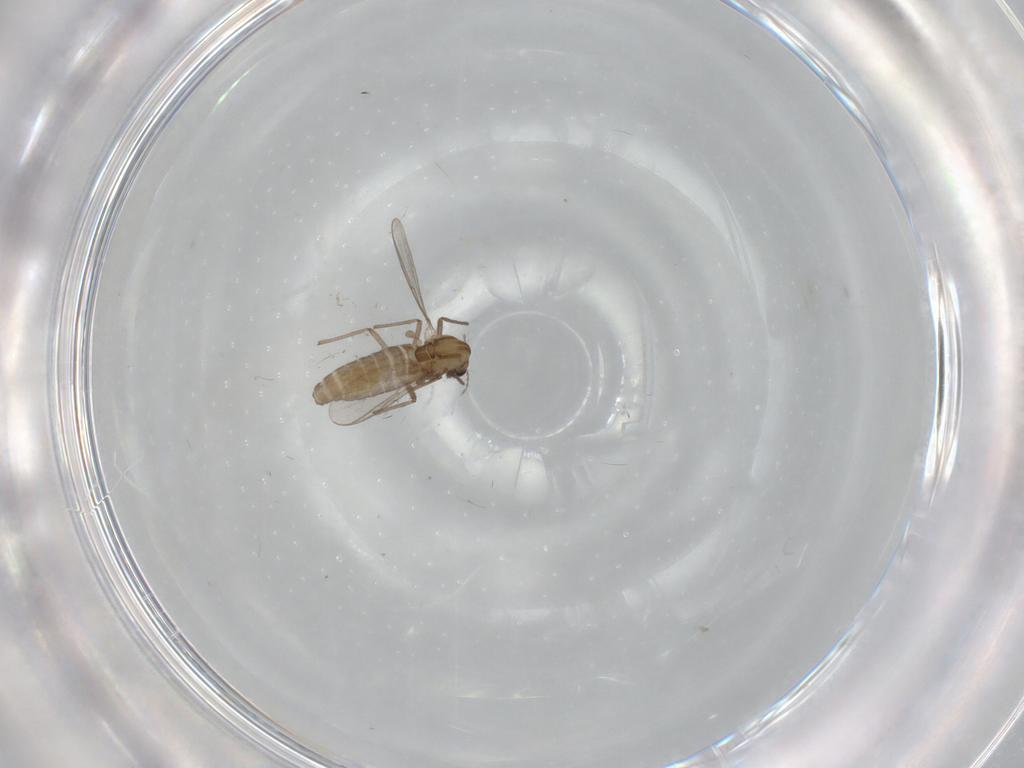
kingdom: Animalia
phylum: Arthropoda
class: Insecta
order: Diptera
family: Chironomidae
